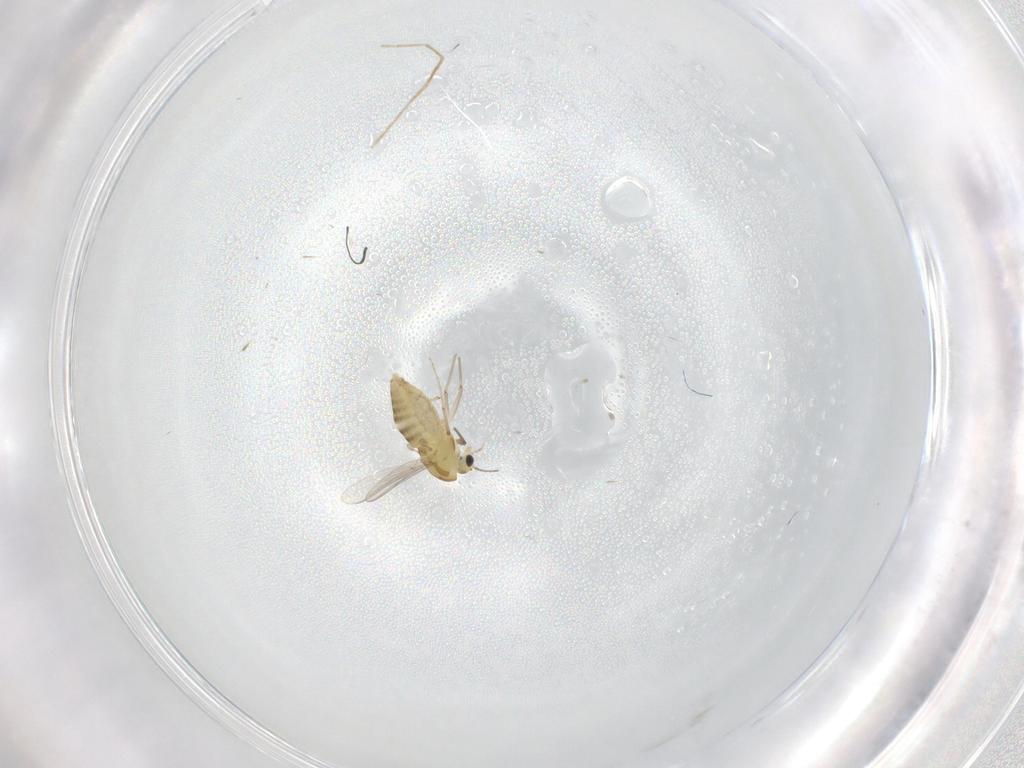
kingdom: Animalia
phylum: Arthropoda
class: Insecta
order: Diptera
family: Chironomidae
